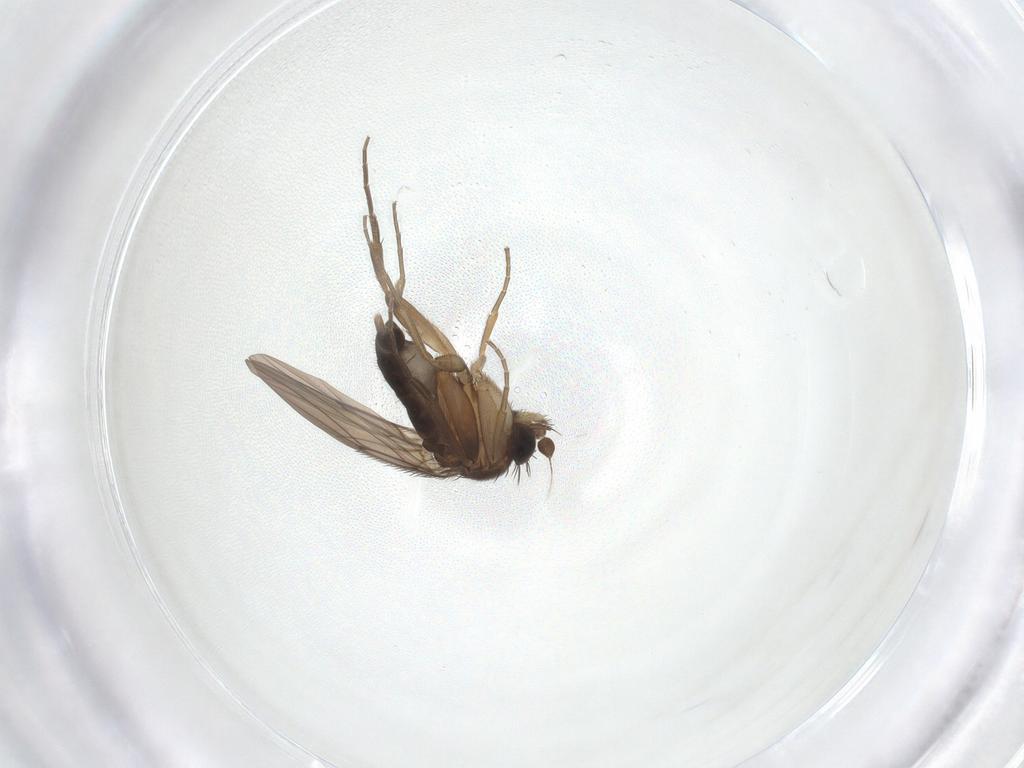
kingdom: Animalia
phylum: Arthropoda
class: Insecta
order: Diptera
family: Phoridae
